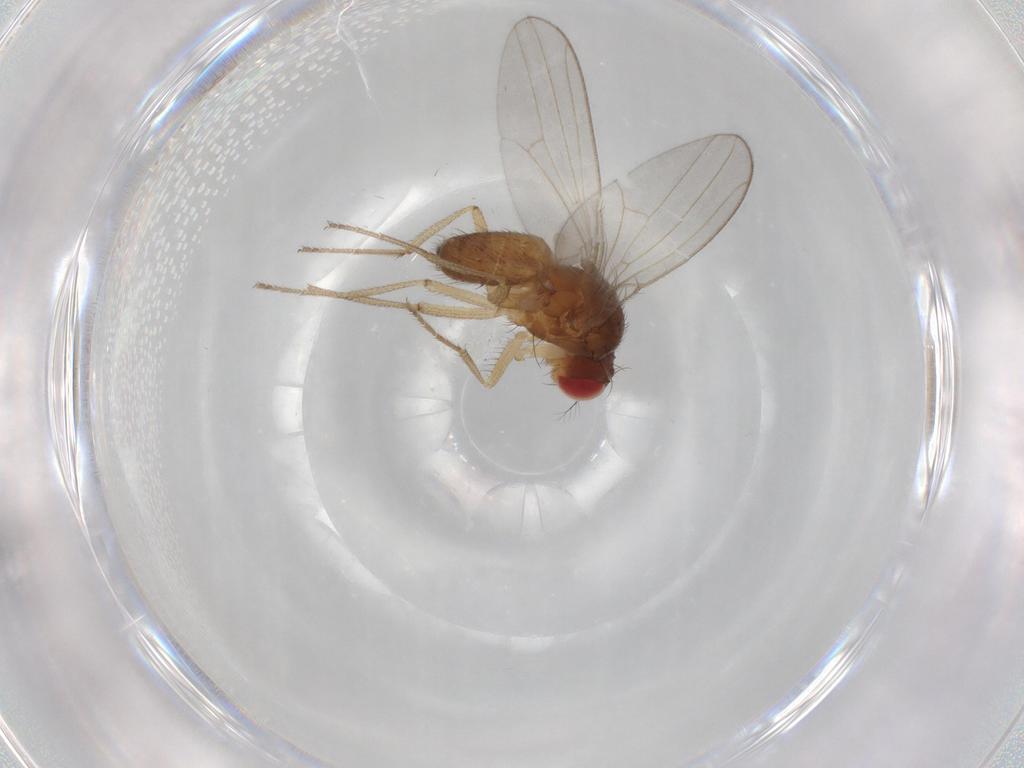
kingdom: Animalia
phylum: Arthropoda
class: Insecta
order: Diptera
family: Drosophilidae
